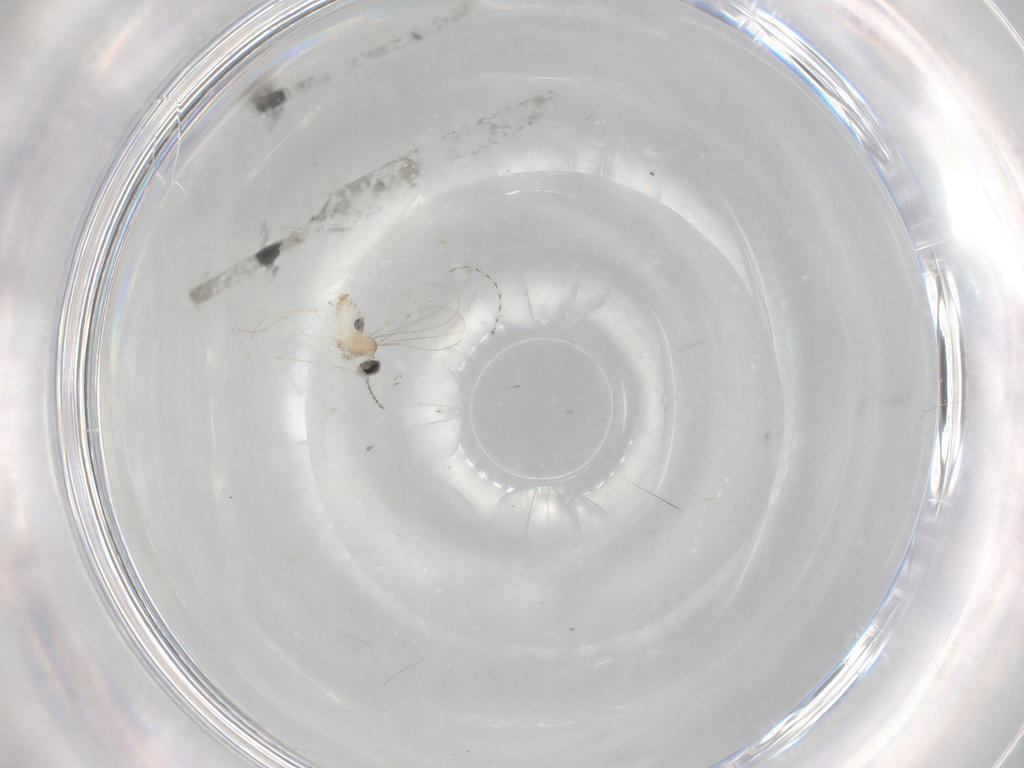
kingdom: Animalia
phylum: Arthropoda
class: Insecta
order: Diptera
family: Cecidomyiidae
